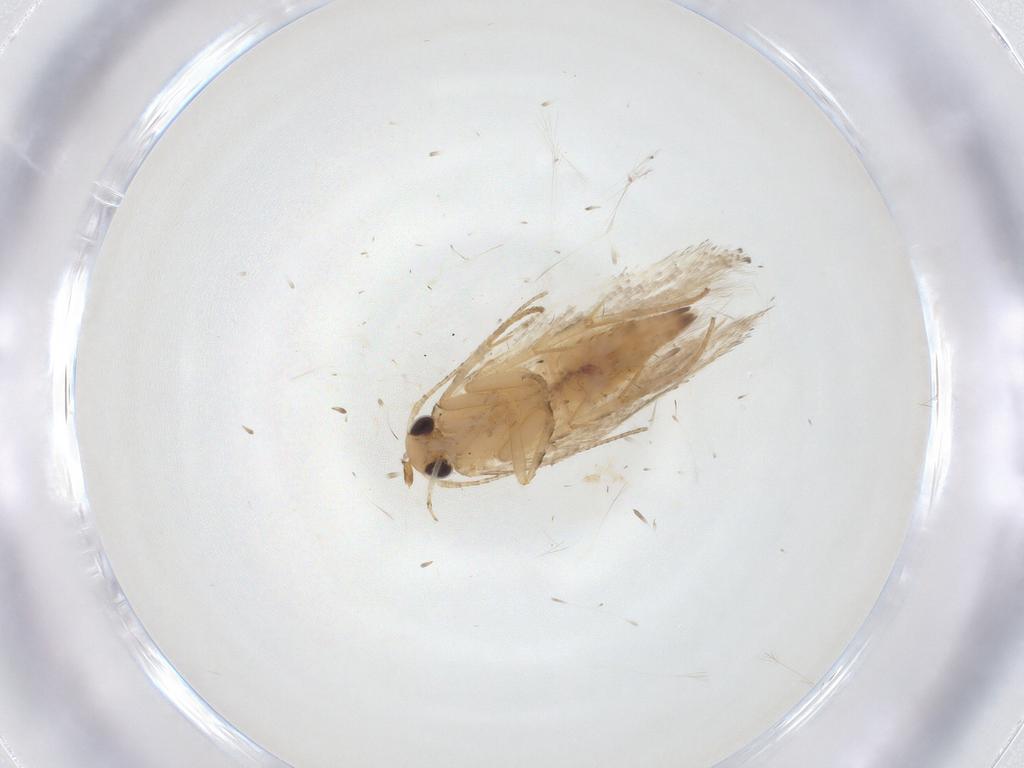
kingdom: Animalia
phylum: Arthropoda
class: Insecta
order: Lepidoptera
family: Gelechiidae
